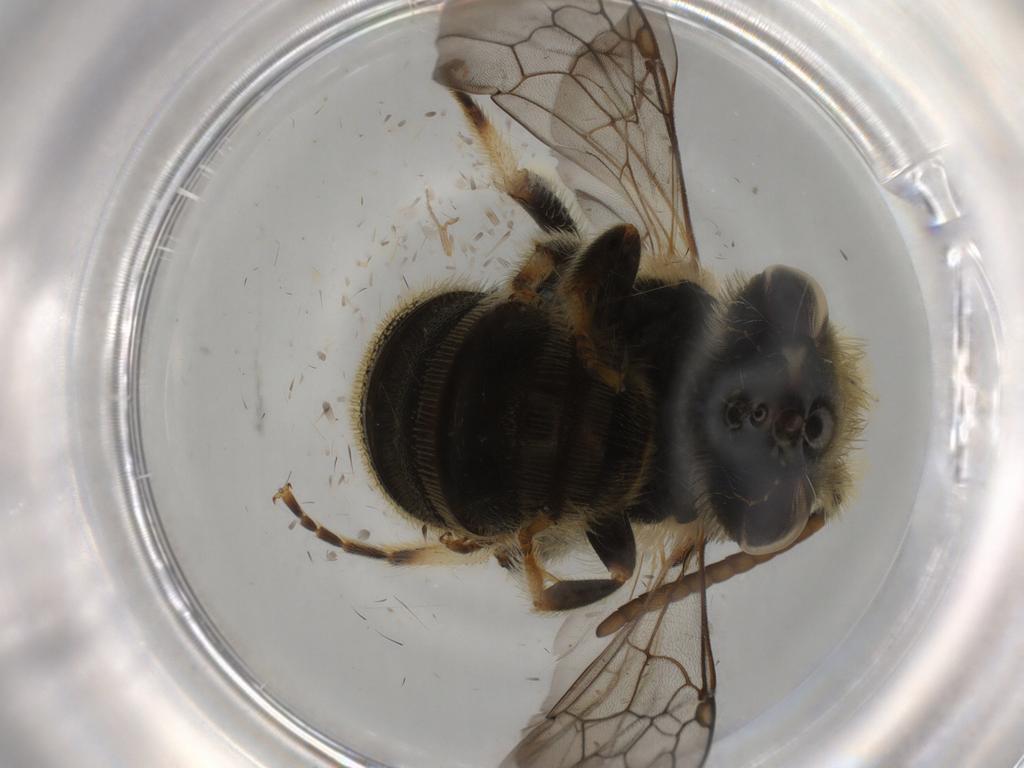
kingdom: Animalia
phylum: Arthropoda
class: Insecta
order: Hymenoptera
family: Halictidae
